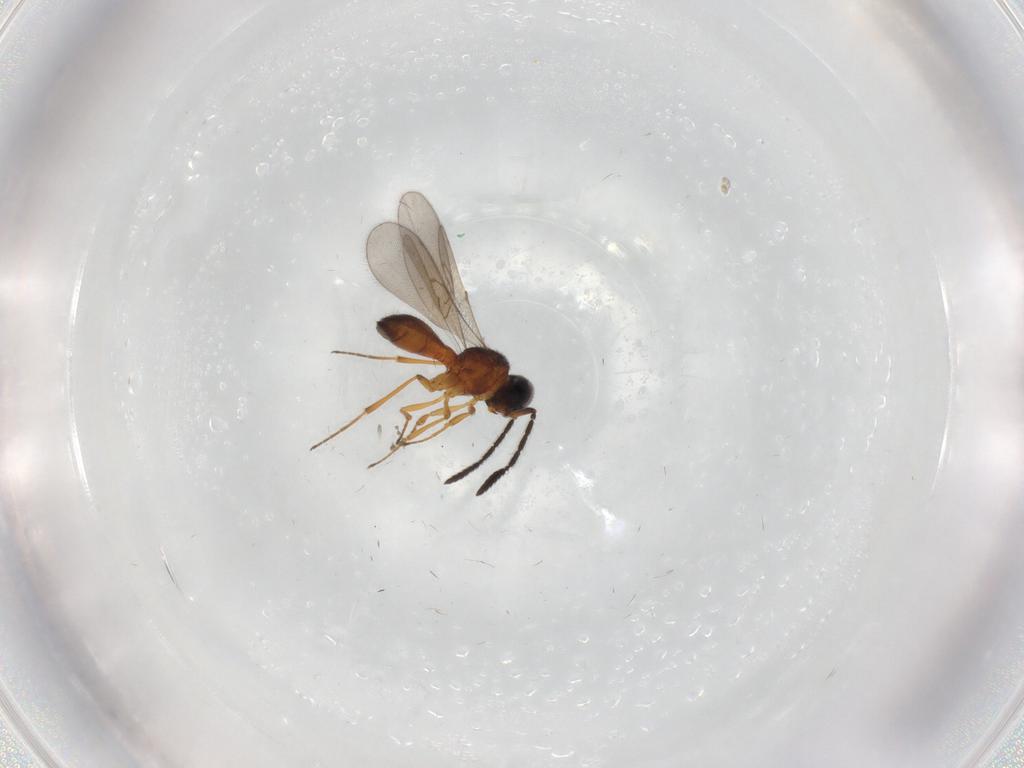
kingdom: Animalia
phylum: Arthropoda
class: Insecta
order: Hymenoptera
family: Scelionidae
